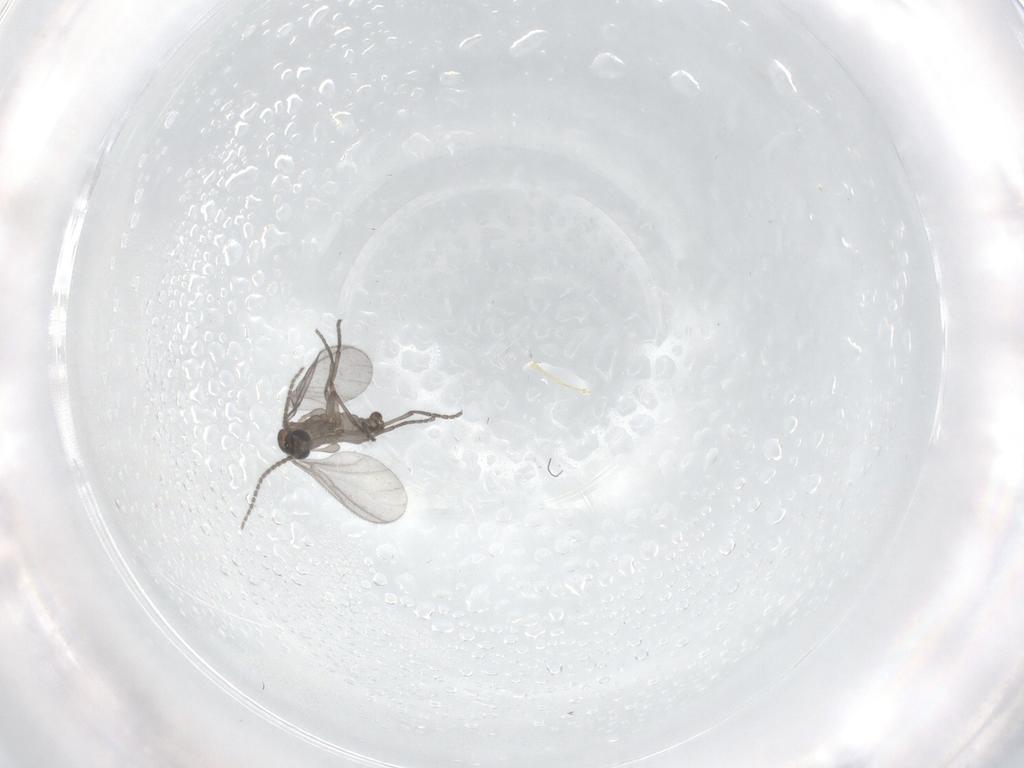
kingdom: Animalia
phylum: Arthropoda
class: Insecta
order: Diptera
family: Sciaridae
